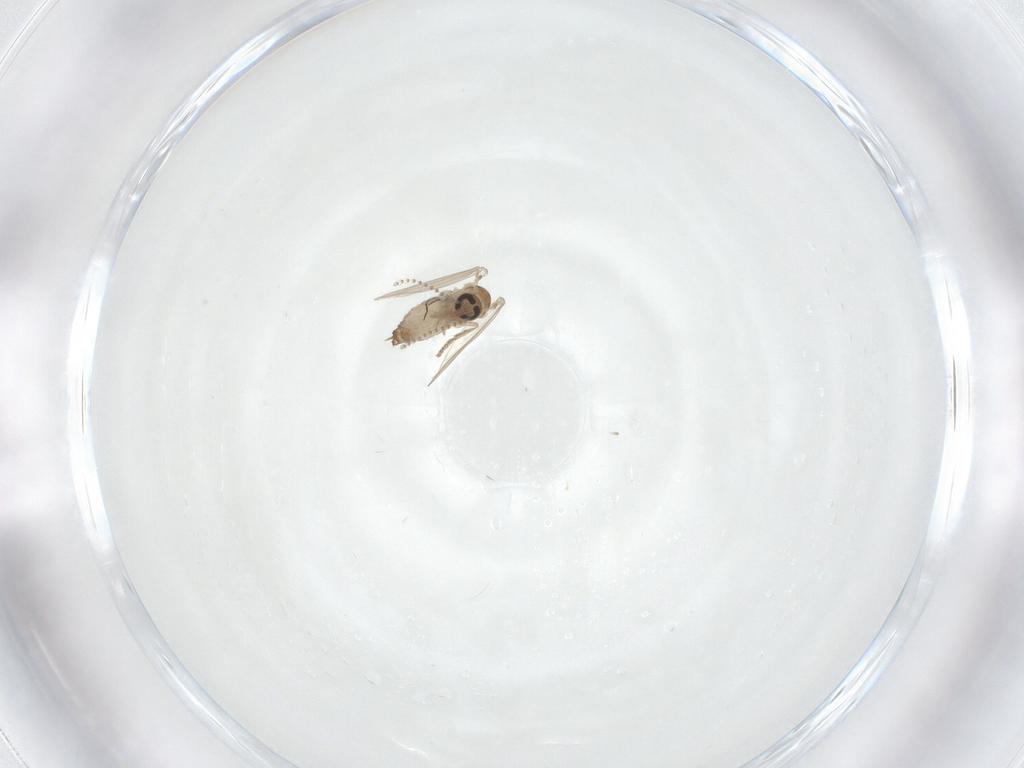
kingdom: Animalia
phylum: Arthropoda
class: Insecta
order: Diptera
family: Psychodidae
